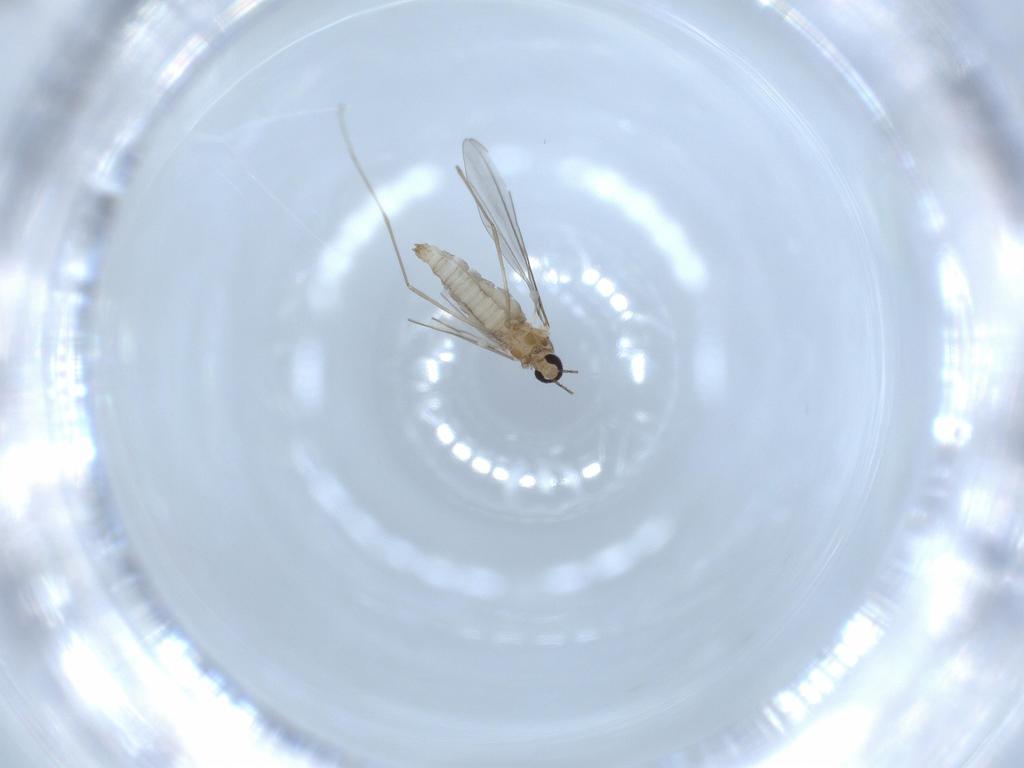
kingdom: Animalia
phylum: Arthropoda
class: Insecta
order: Diptera
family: Cecidomyiidae
